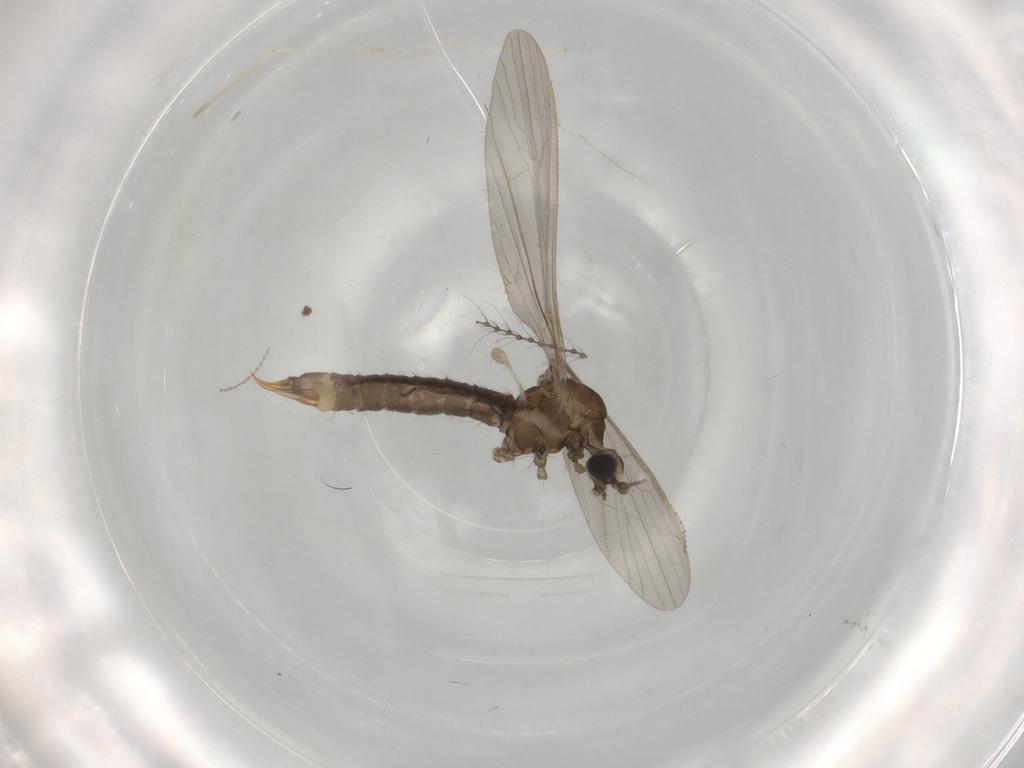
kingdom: Animalia
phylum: Arthropoda
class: Insecta
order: Diptera
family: Cecidomyiidae
